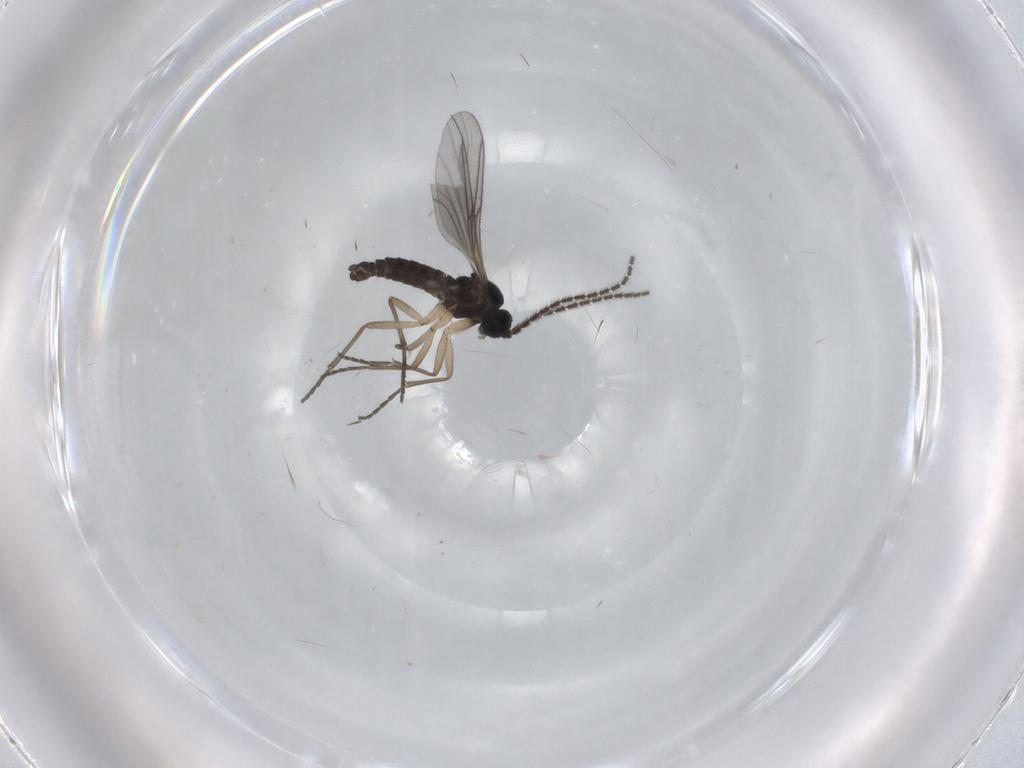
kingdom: Animalia
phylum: Arthropoda
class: Insecta
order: Diptera
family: Sciaridae
